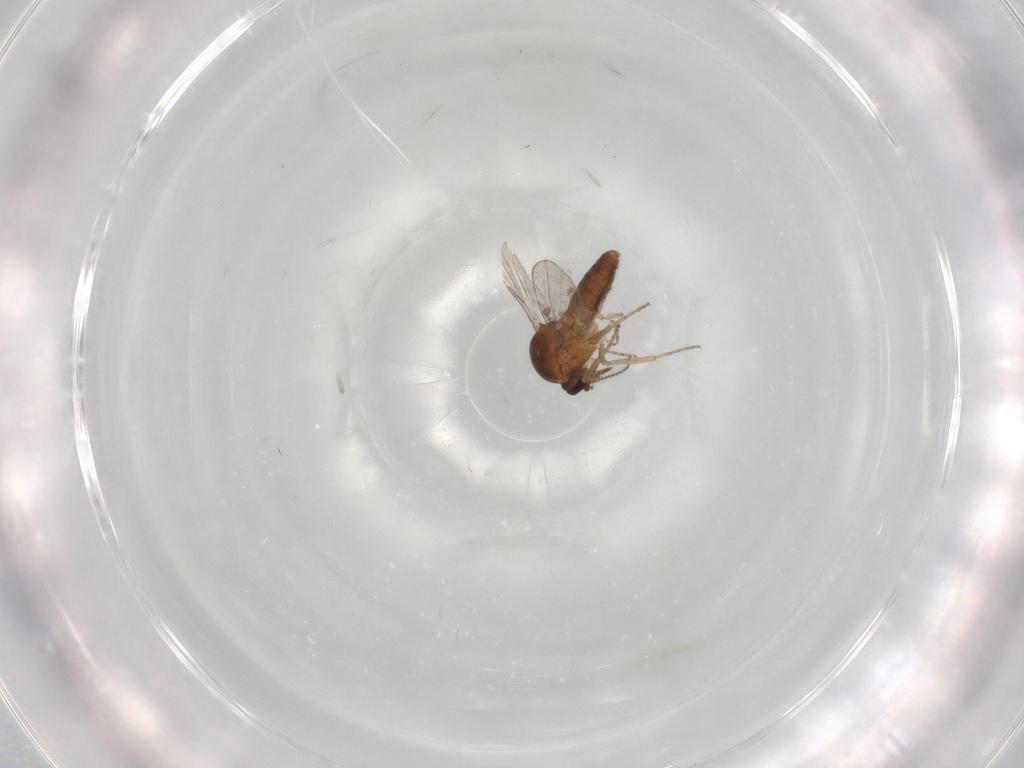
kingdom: Animalia
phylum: Arthropoda
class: Insecta
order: Diptera
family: Ceratopogonidae
